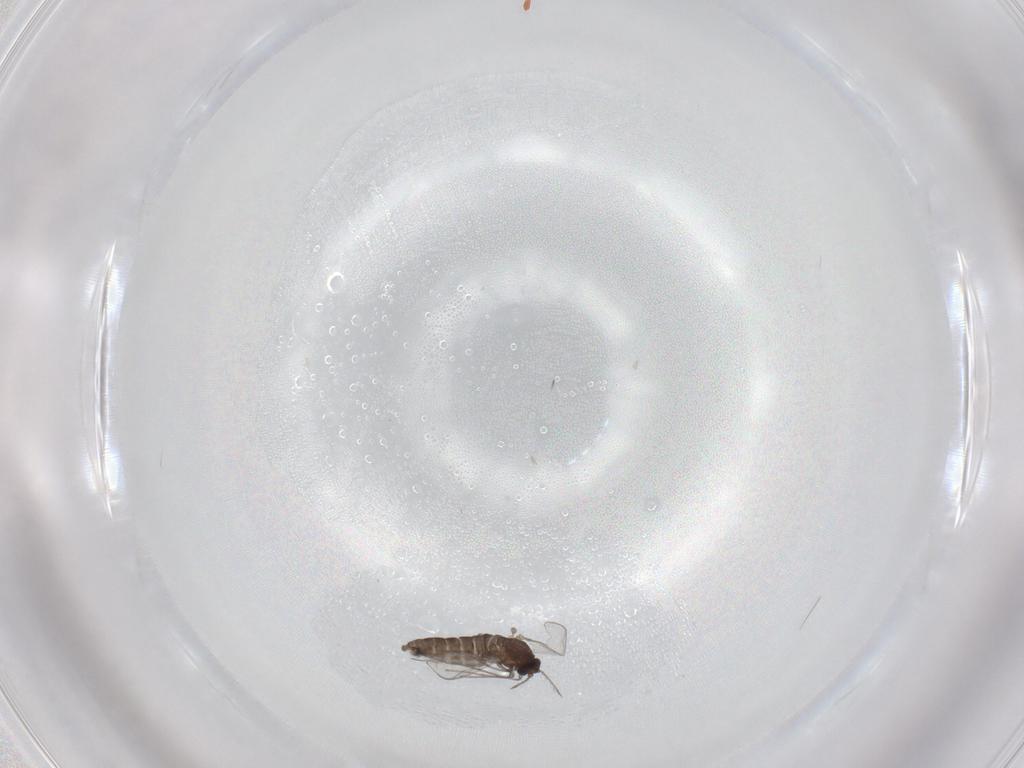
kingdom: Animalia
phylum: Arthropoda
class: Insecta
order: Diptera
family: Chironomidae
